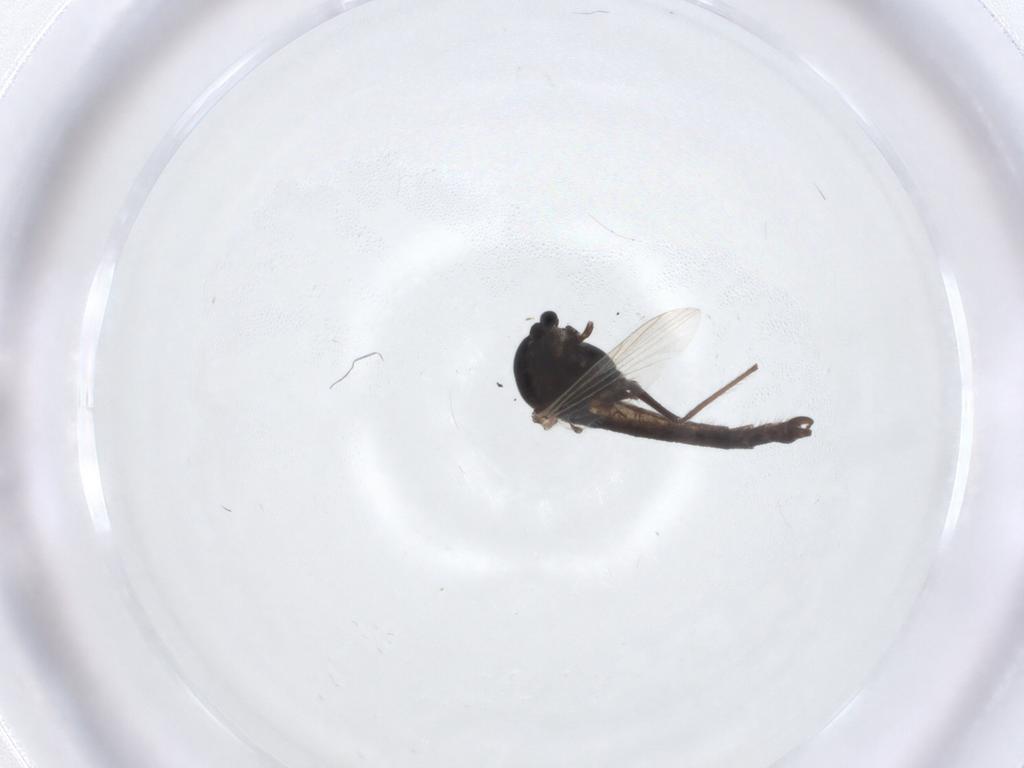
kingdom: Animalia
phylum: Arthropoda
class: Insecta
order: Diptera
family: Chironomidae
